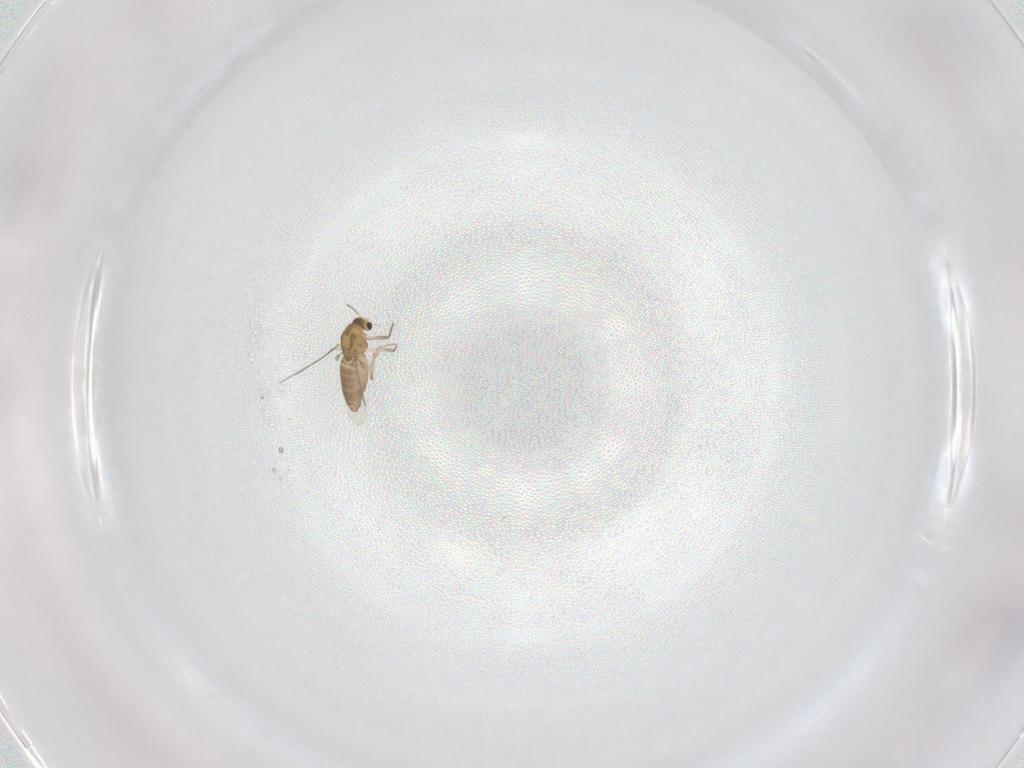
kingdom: Animalia
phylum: Arthropoda
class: Insecta
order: Diptera
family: Chironomidae
